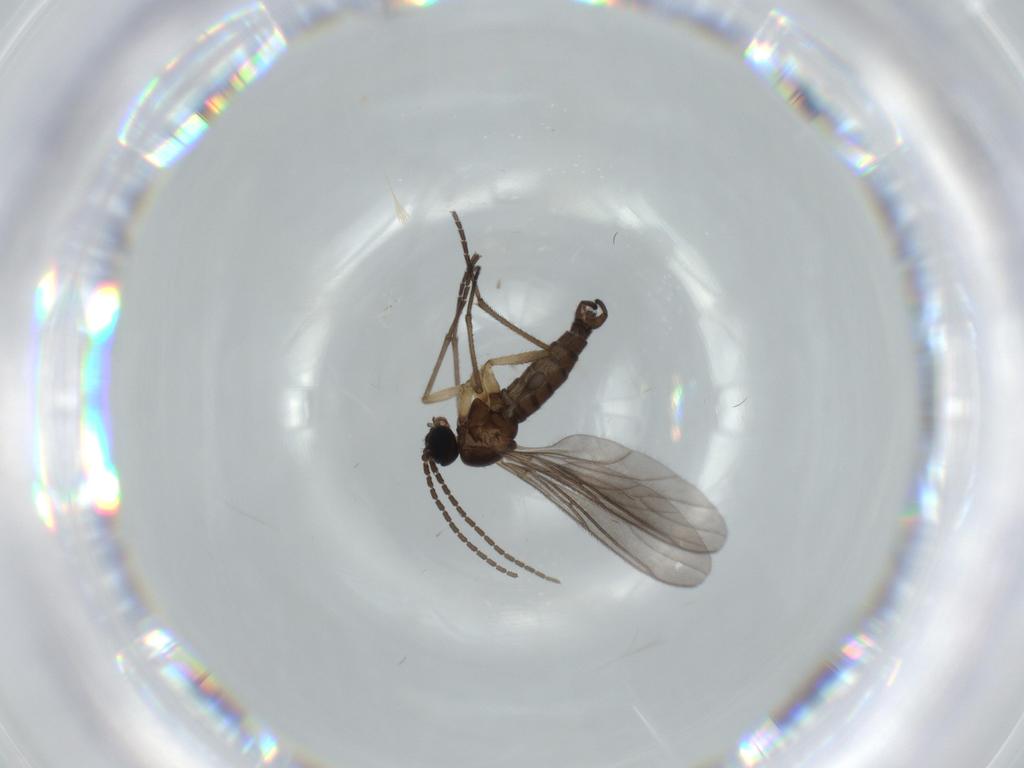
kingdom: Animalia
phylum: Arthropoda
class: Insecta
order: Diptera
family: Sciaridae
